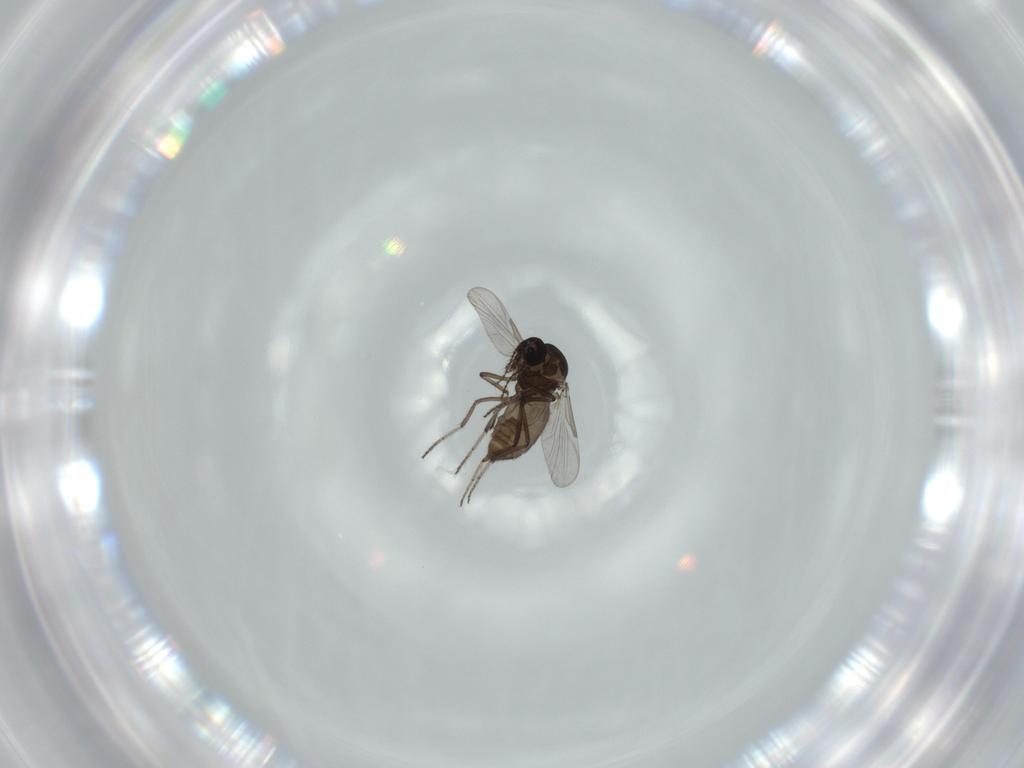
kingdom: Animalia
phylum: Arthropoda
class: Insecta
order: Diptera
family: Ceratopogonidae
